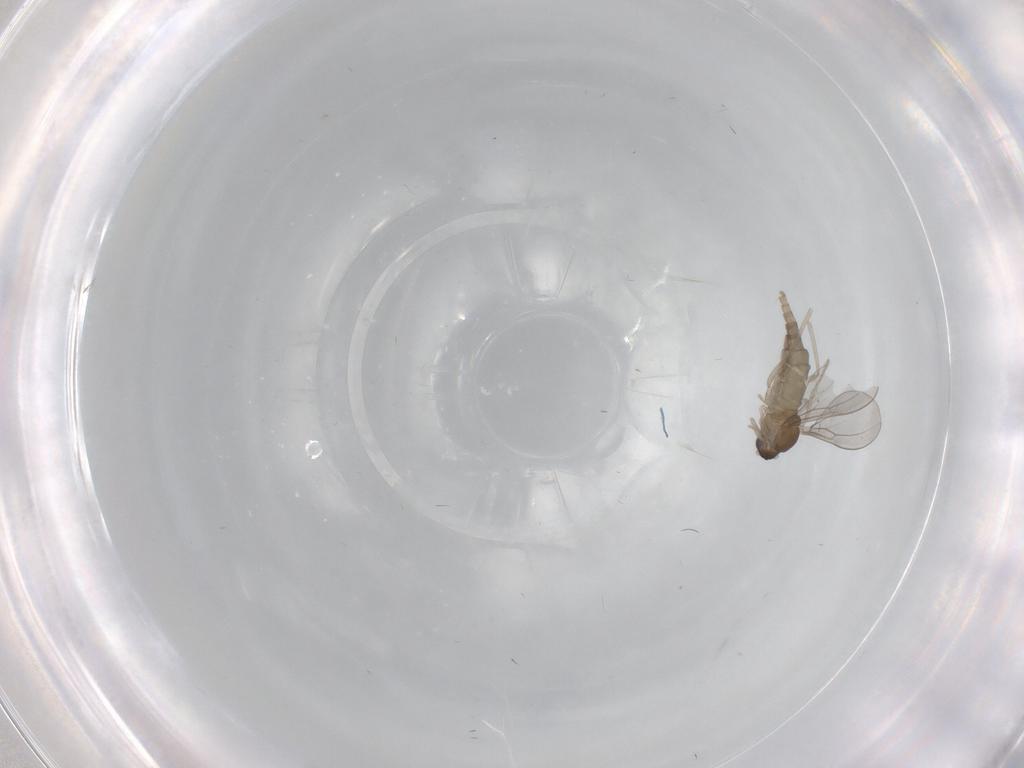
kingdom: Animalia
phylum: Arthropoda
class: Insecta
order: Diptera
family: Cecidomyiidae
